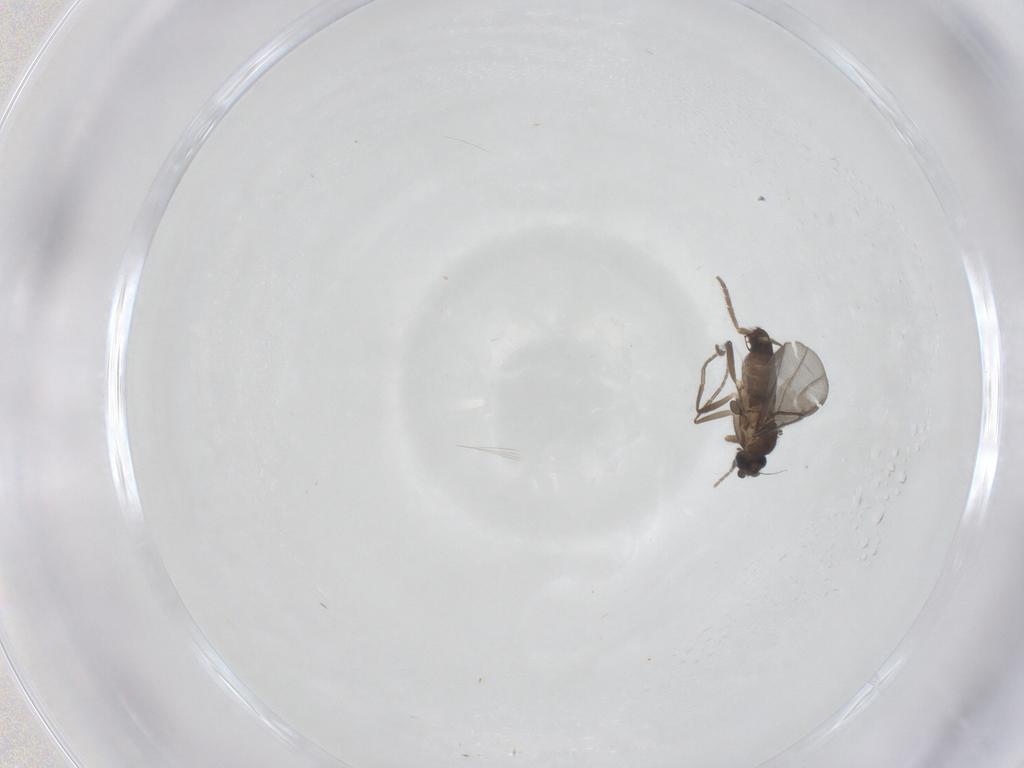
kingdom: Animalia
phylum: Arthropoda
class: Insecta
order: Diptera
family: Phoridae
